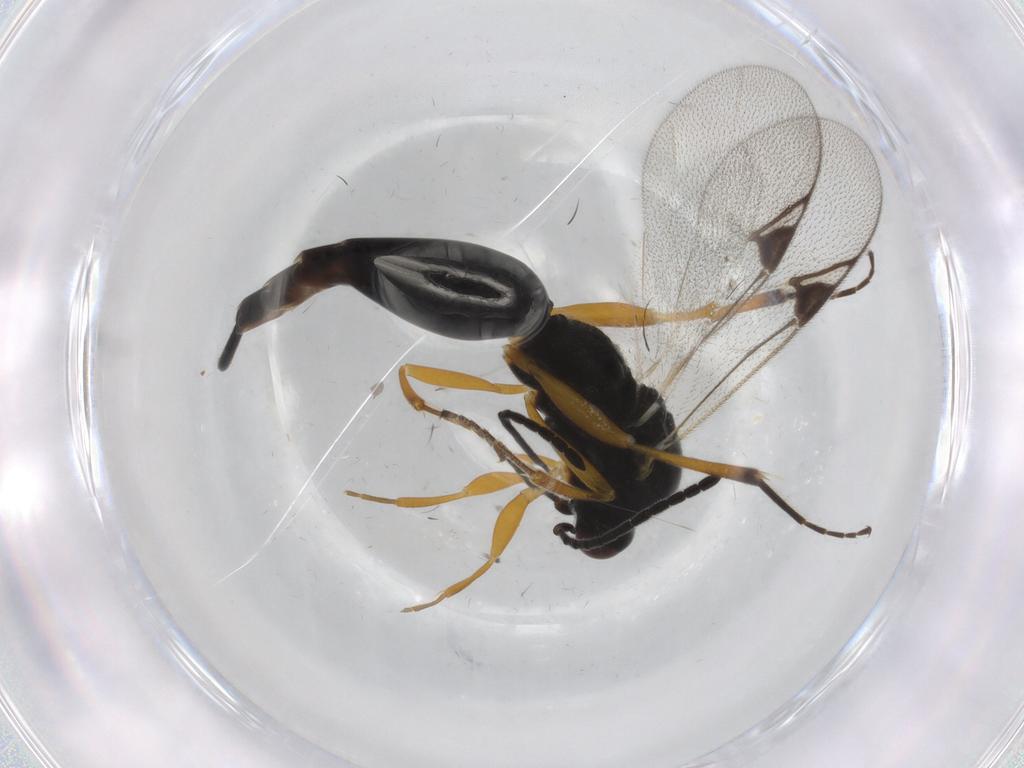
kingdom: Animalia
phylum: Arthropoda
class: Insecta
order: Hymenoptera
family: Proctotrupidae
